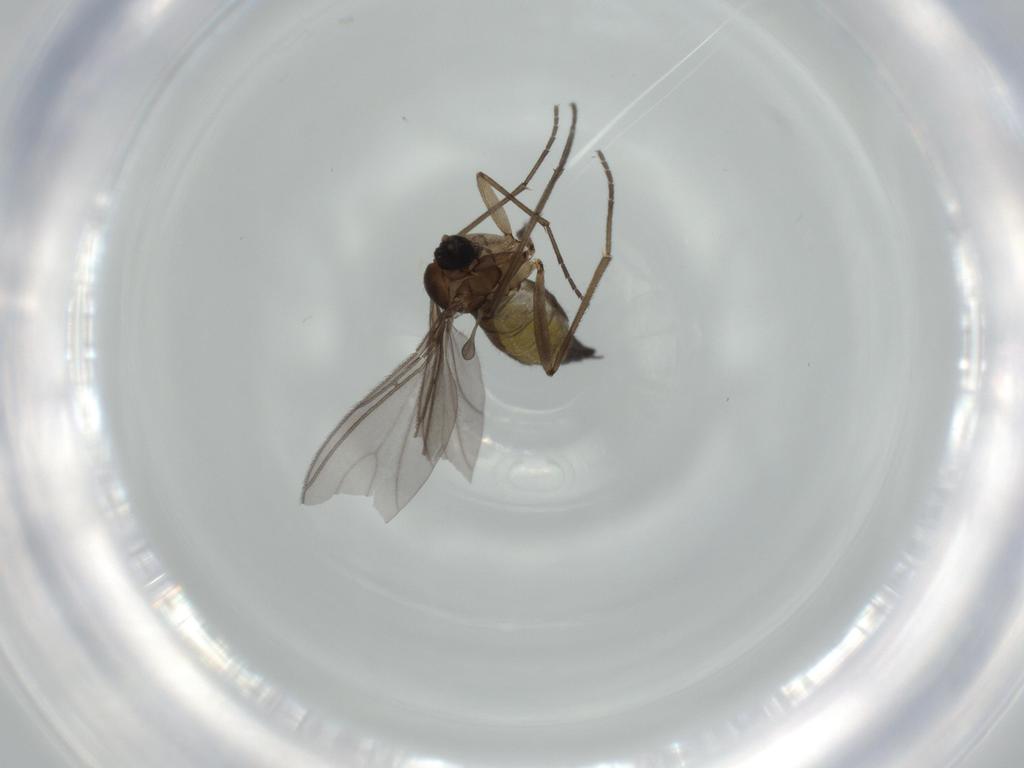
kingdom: Animalia
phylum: Arthropoda
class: Insecta
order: Diptera
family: Sciaridae
